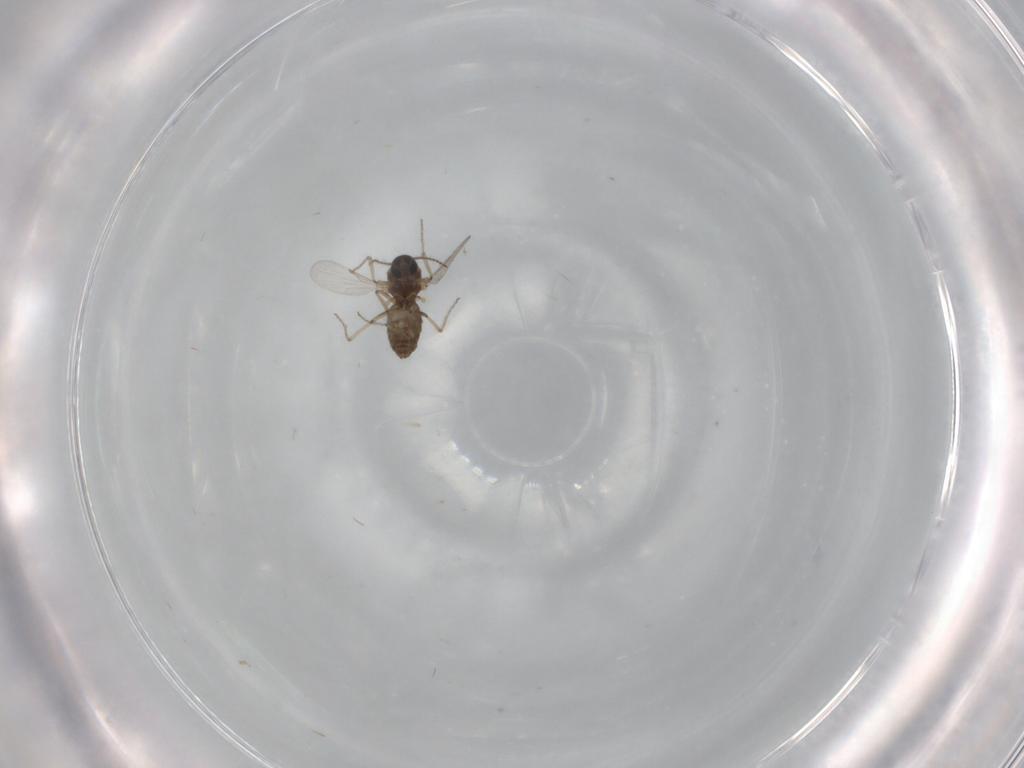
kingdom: Animalia
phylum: Arthropoda
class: Insecta
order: Diptera
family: Ceratopogonidae
